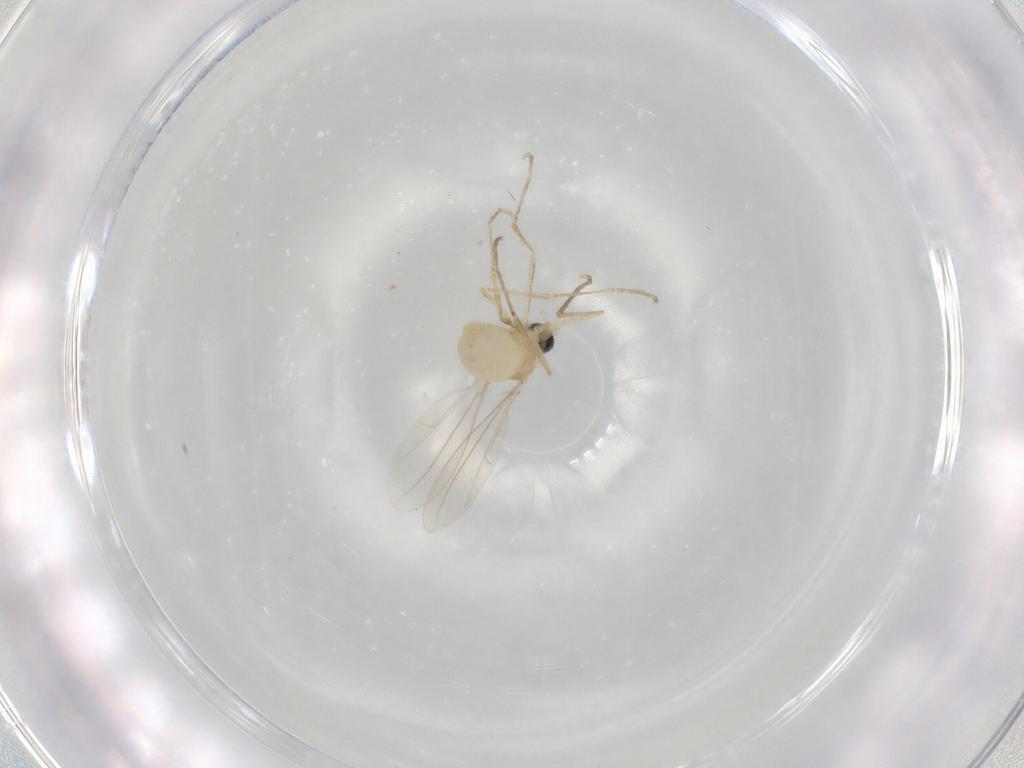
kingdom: Animalia
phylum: Arthropoda
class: Insecta
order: Diptera
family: Cecidomyiidae
